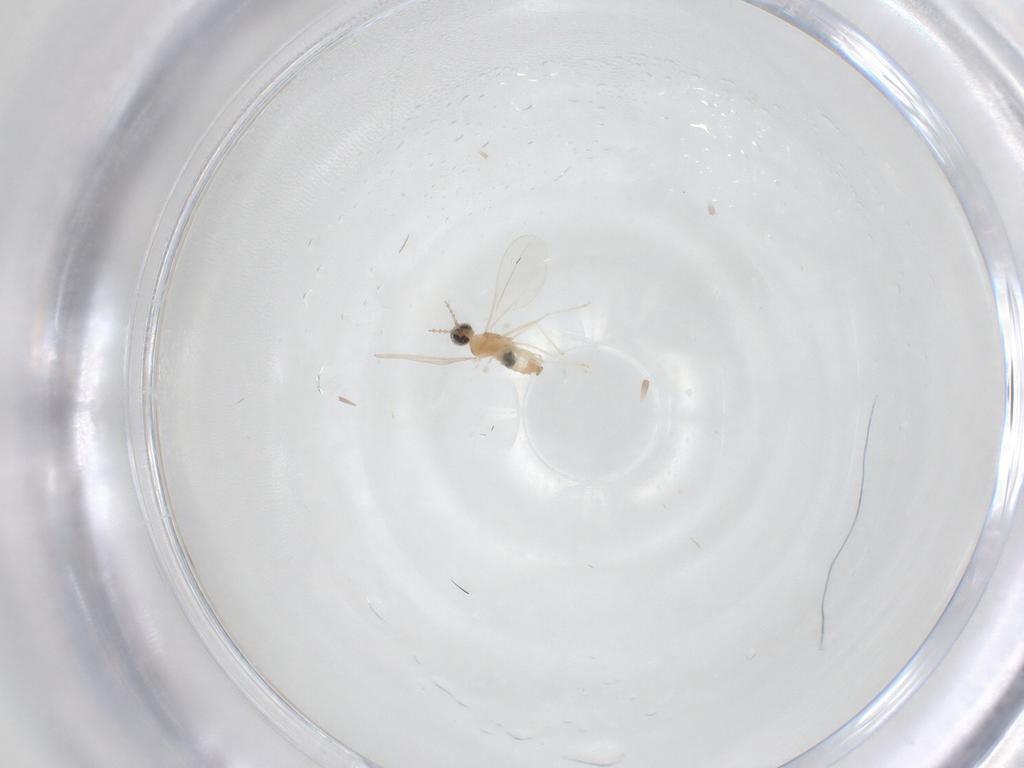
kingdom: Animalia
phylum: Arthropoda
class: Insecta
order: Diptera
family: Cecidomyiidae
